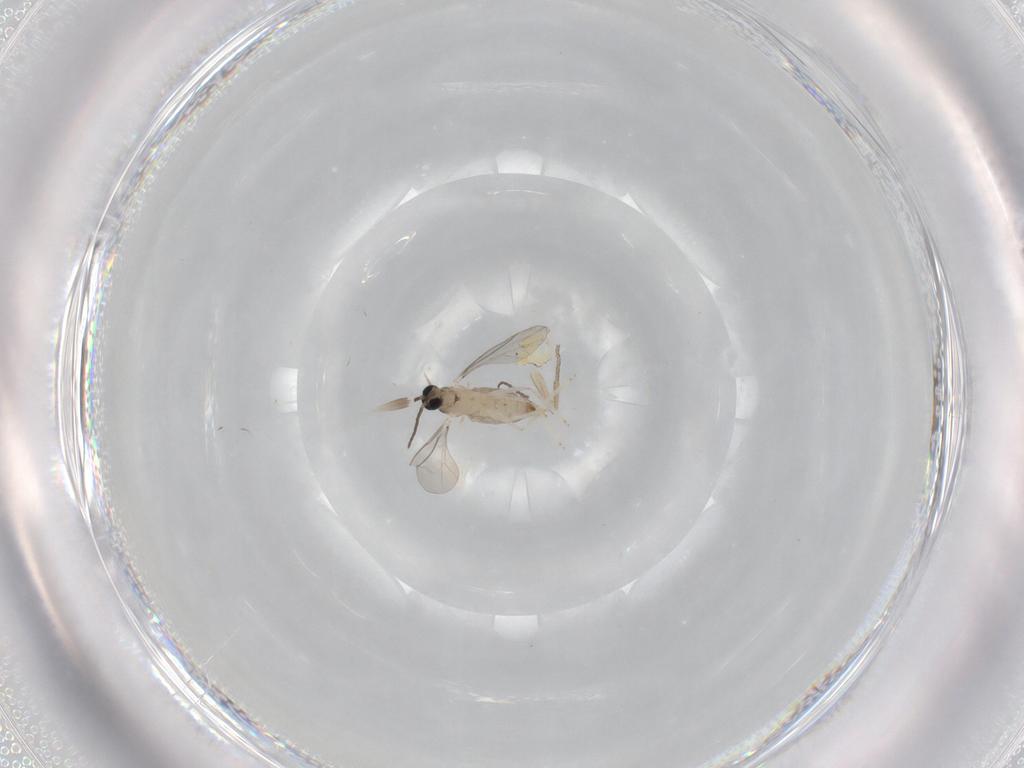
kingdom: Animalia
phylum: Arthropoda
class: Insecta
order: Diptera
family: Cecidomyiidae
